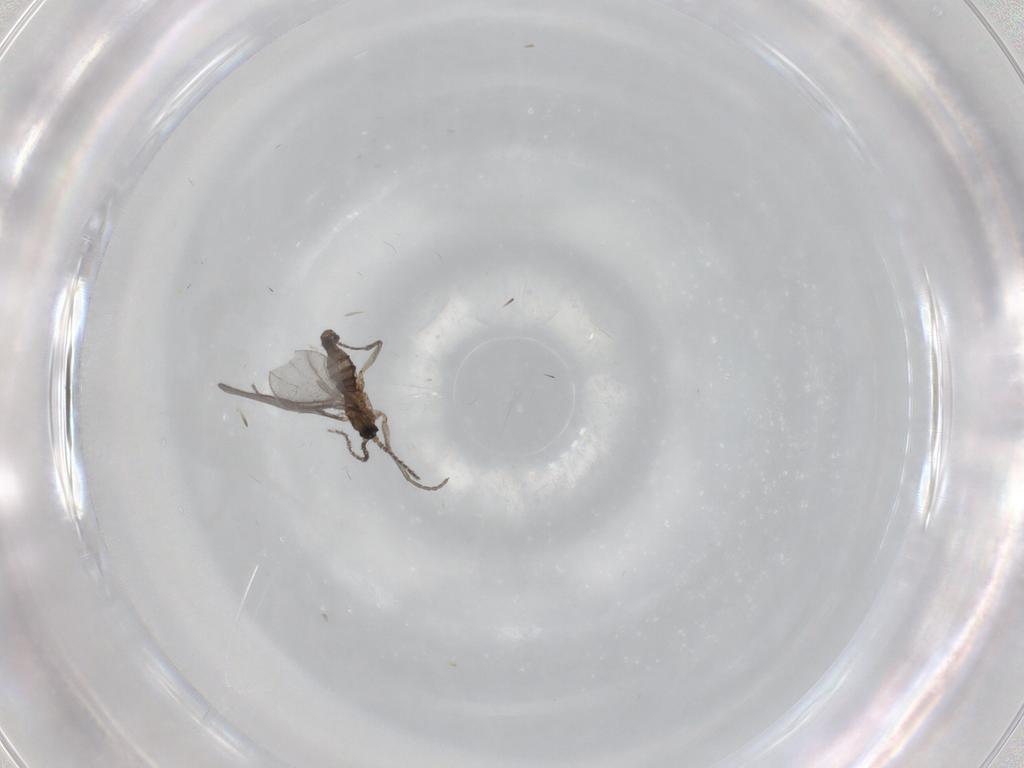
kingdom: Animalia
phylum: Arthropoda
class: Insecta
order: Diptera
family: Sciaridae
